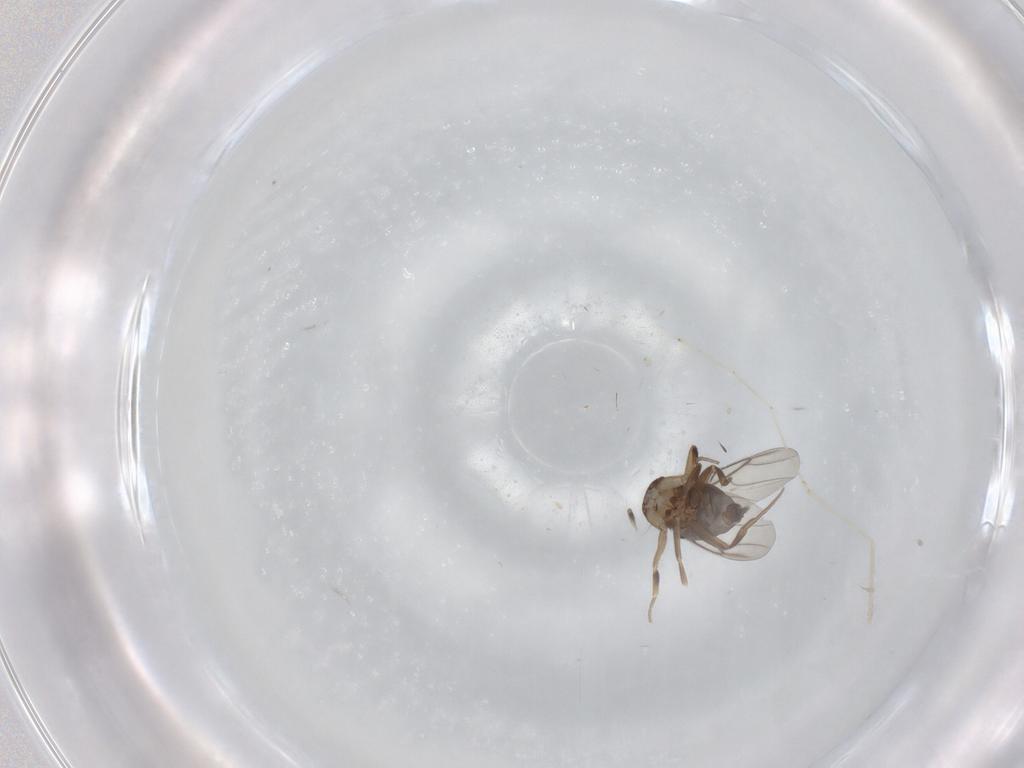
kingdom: Animalia
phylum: Arthropoda
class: Insecta
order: Diptera
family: Phoridae
